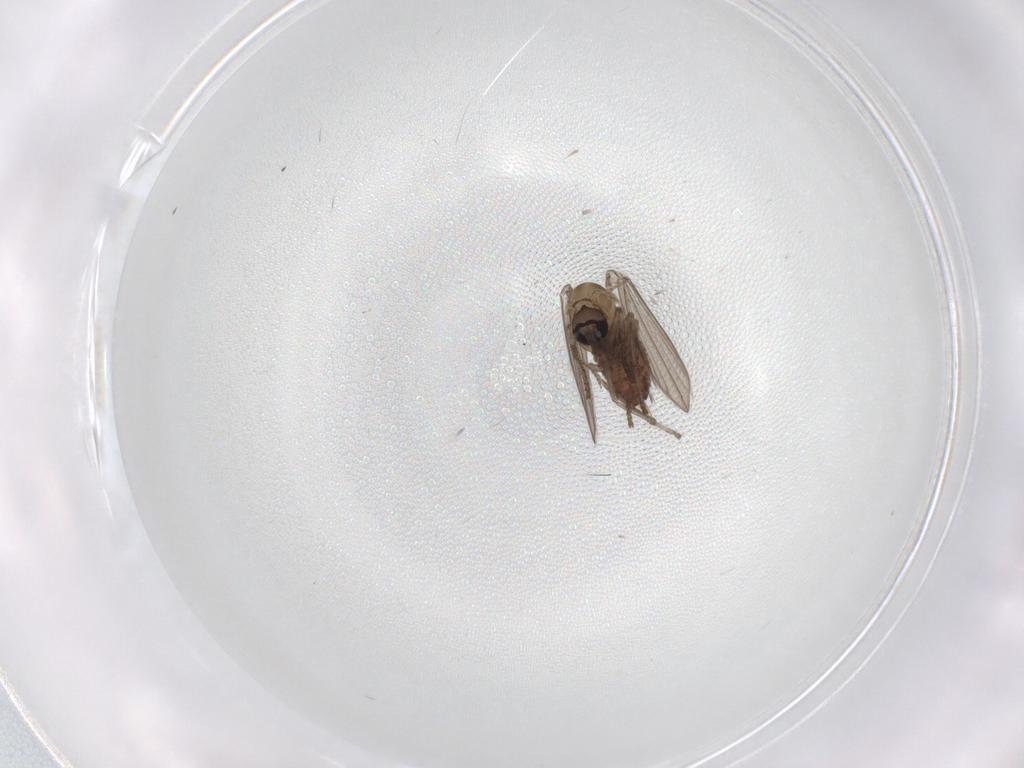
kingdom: Animalia
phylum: Arthropoda
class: Insecta
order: Diptera
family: Psychodidae
